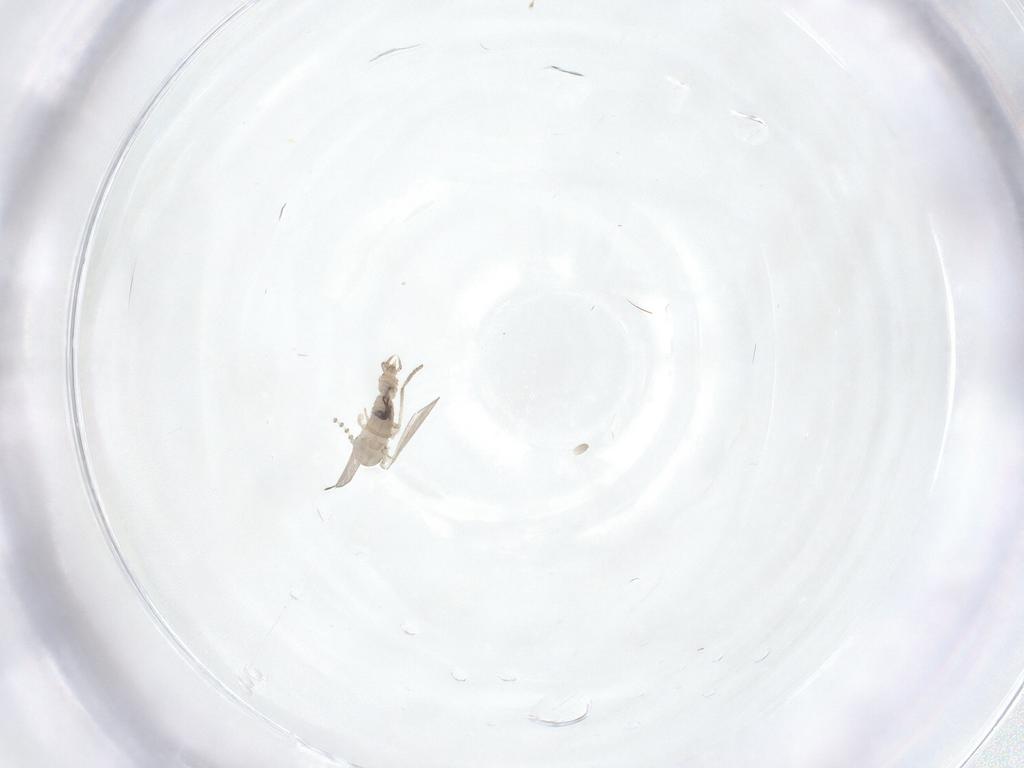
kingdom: Animalia
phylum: Arthropoda
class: Insecta
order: Diptera
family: Psychodidae
